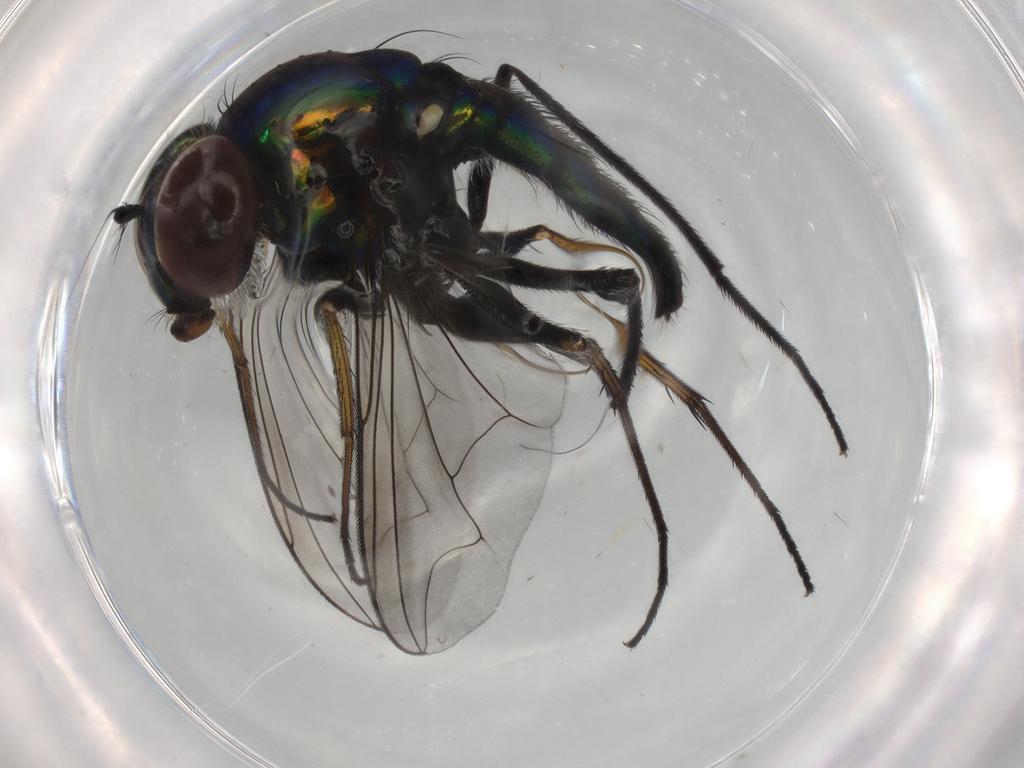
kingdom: Animalia
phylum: Arthropoda
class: Insecta
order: Diptera
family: Dolichopodidae
